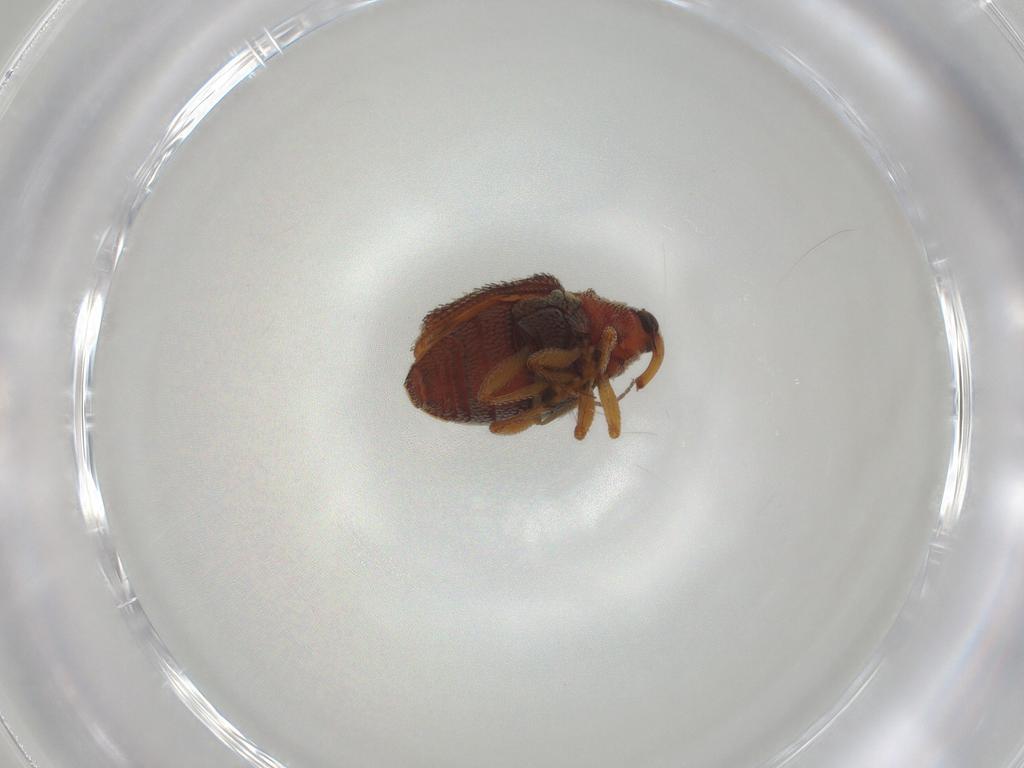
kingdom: Animalia
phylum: Arthropoda
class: Insecta
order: Coleoptera
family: Curculionidae
